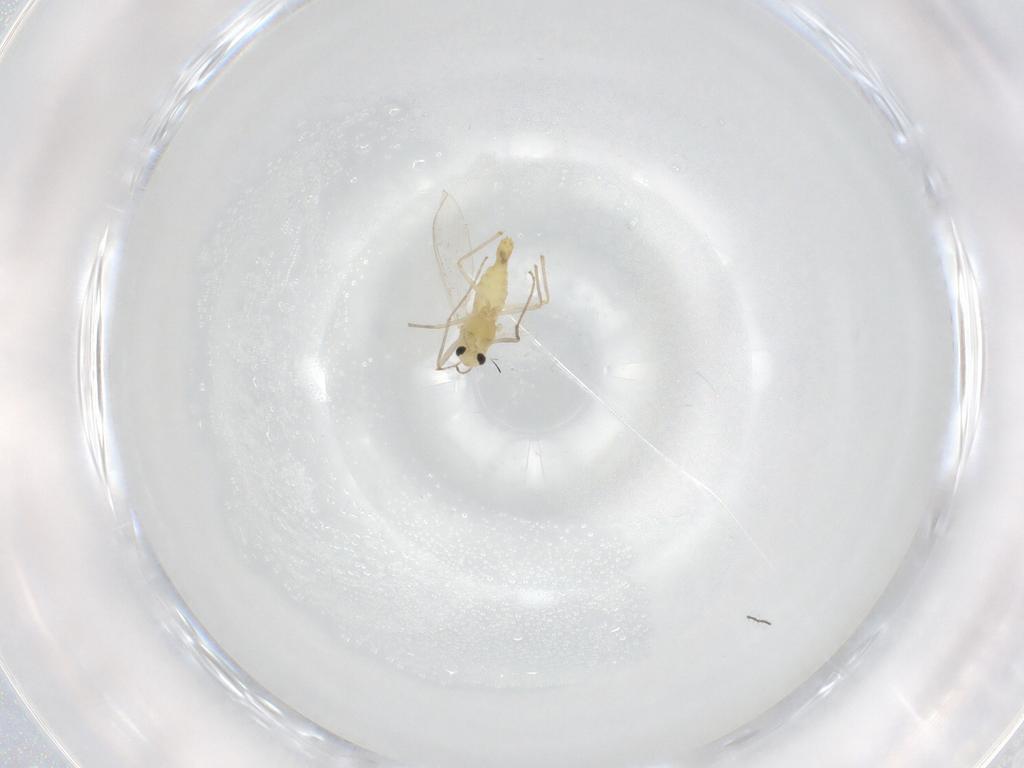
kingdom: Animalia
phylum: Arthropoda
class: Insecta
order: Diptera
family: Chironomidae
